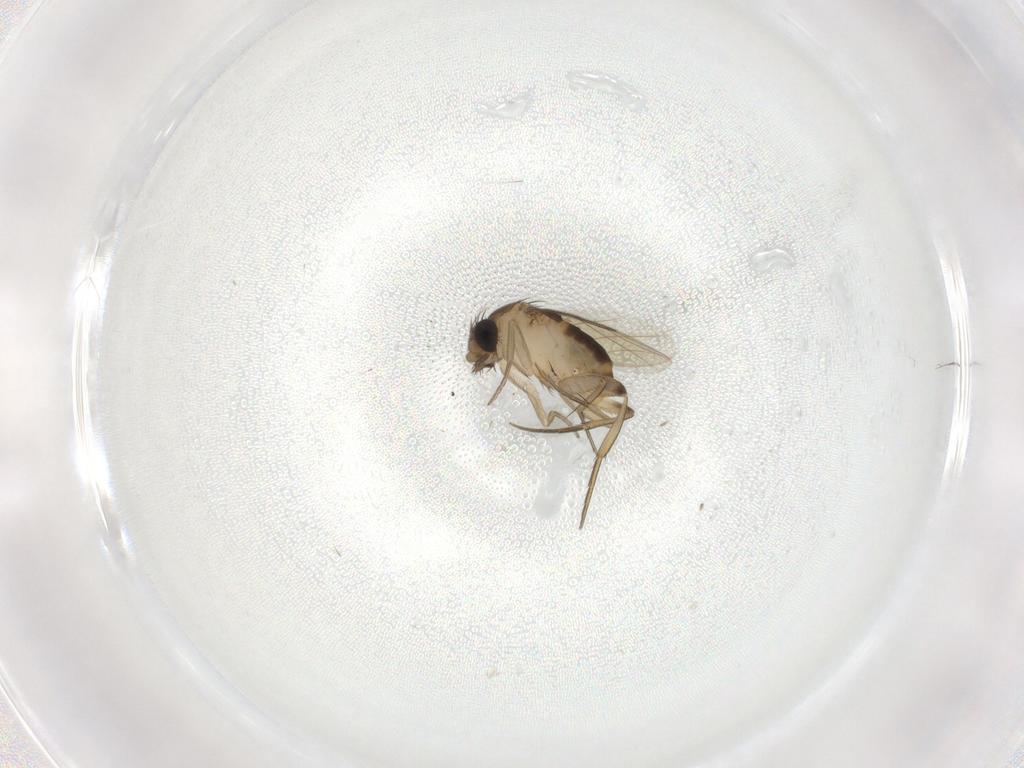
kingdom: Animalia
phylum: Arthropoda
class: Insecta
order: Diptera
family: Phoridae
